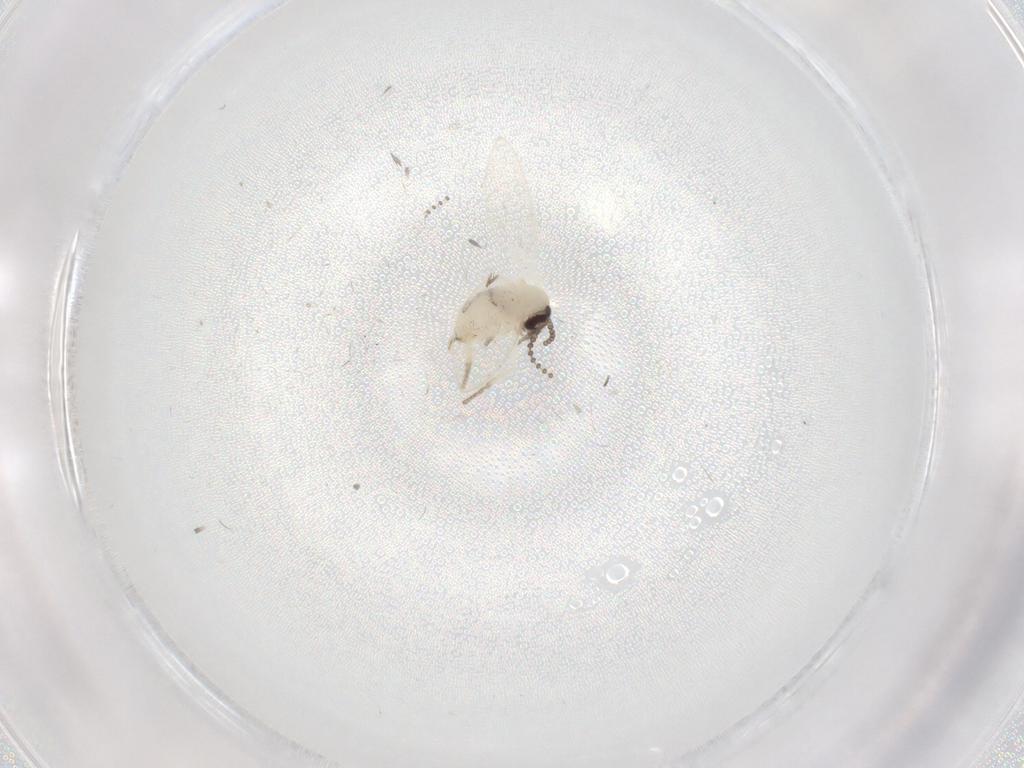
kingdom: Animalia
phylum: Arthropoda
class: Insecta
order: Diptera
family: Psychodidae
